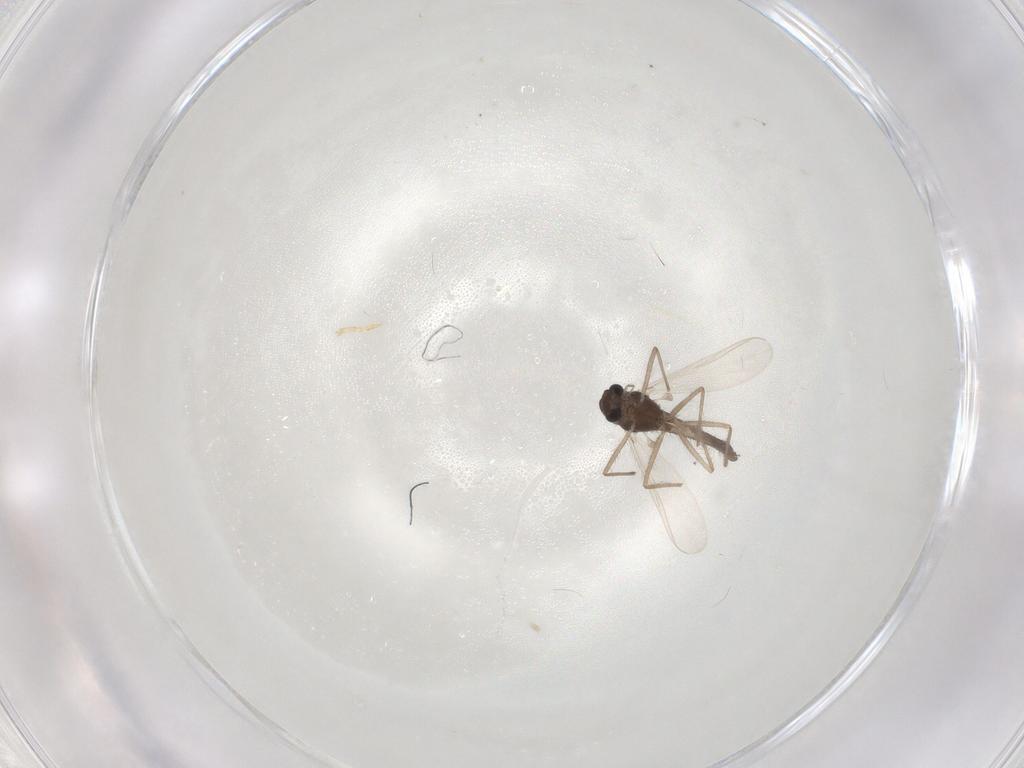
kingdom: Animalia
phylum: Arthropoda
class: Insecta
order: Diptera
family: Chironomidae
